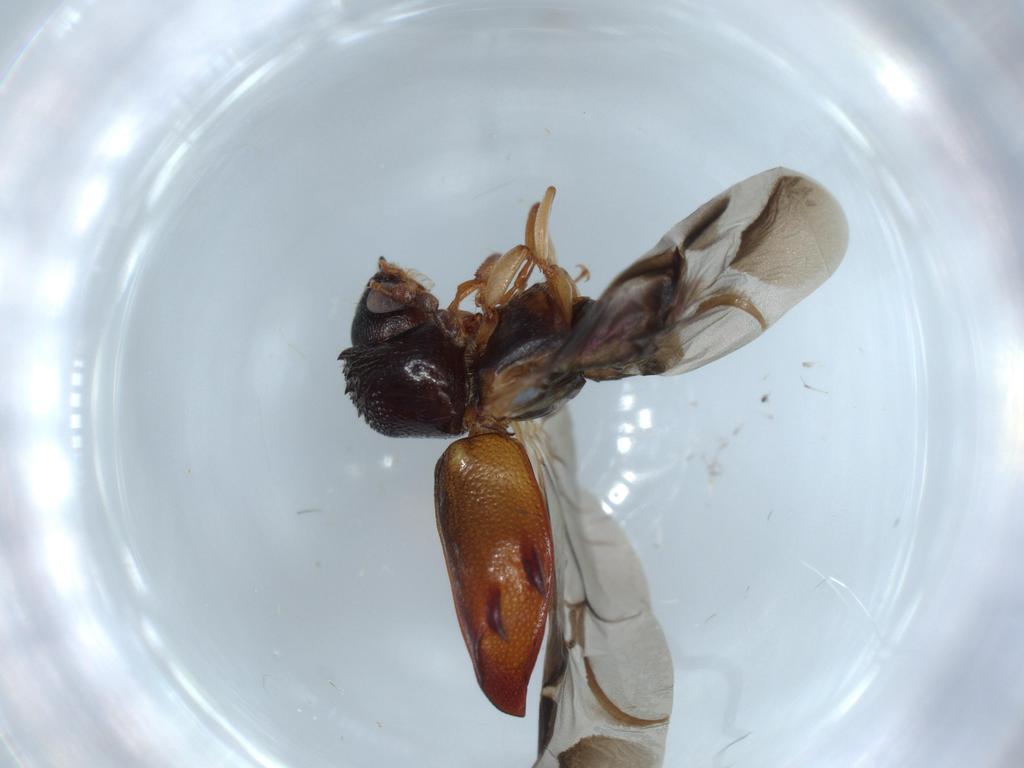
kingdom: Animalia
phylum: Arthropoda
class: Insecta
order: Coleoptera
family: Bostrichidae
